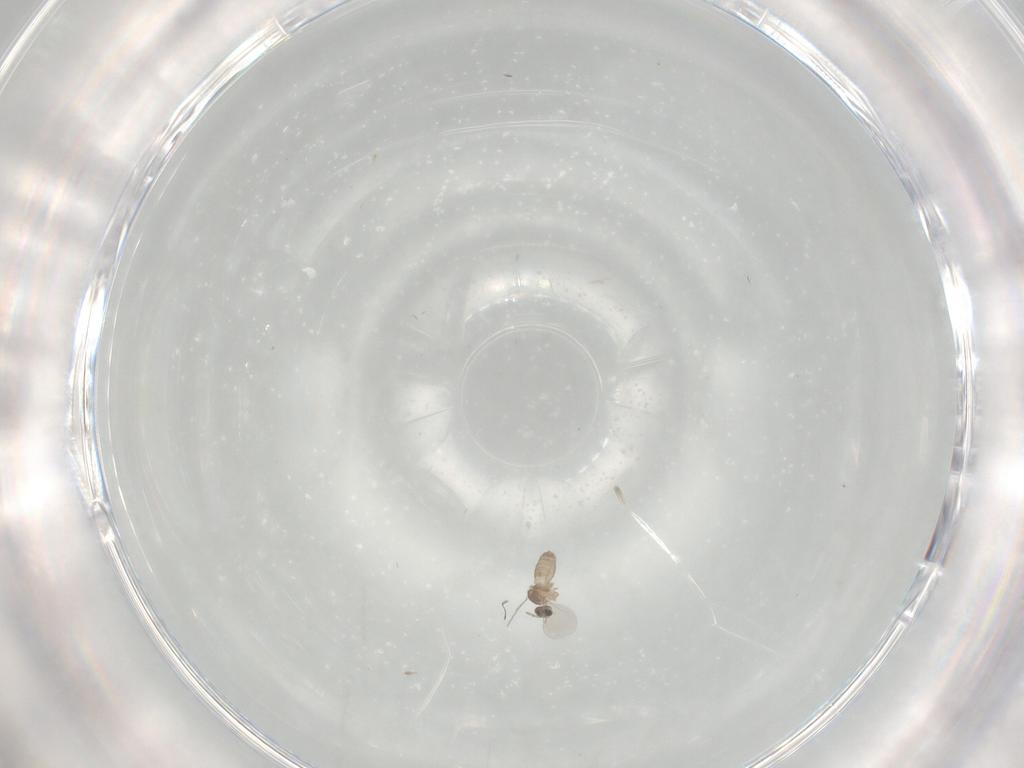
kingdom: Animalia
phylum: Arthropoda
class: Insecta
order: Diptera
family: Cecidomyiidae
